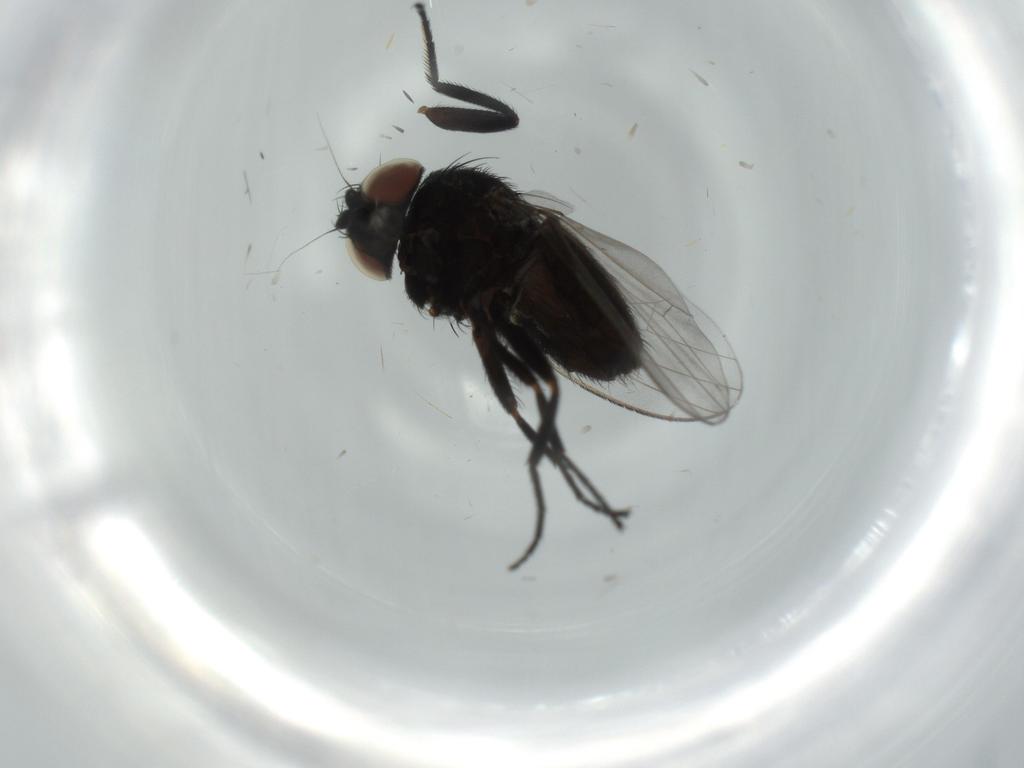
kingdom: Animalia
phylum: Arthropoda
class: Insecta
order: Diptera
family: Milichiidae
